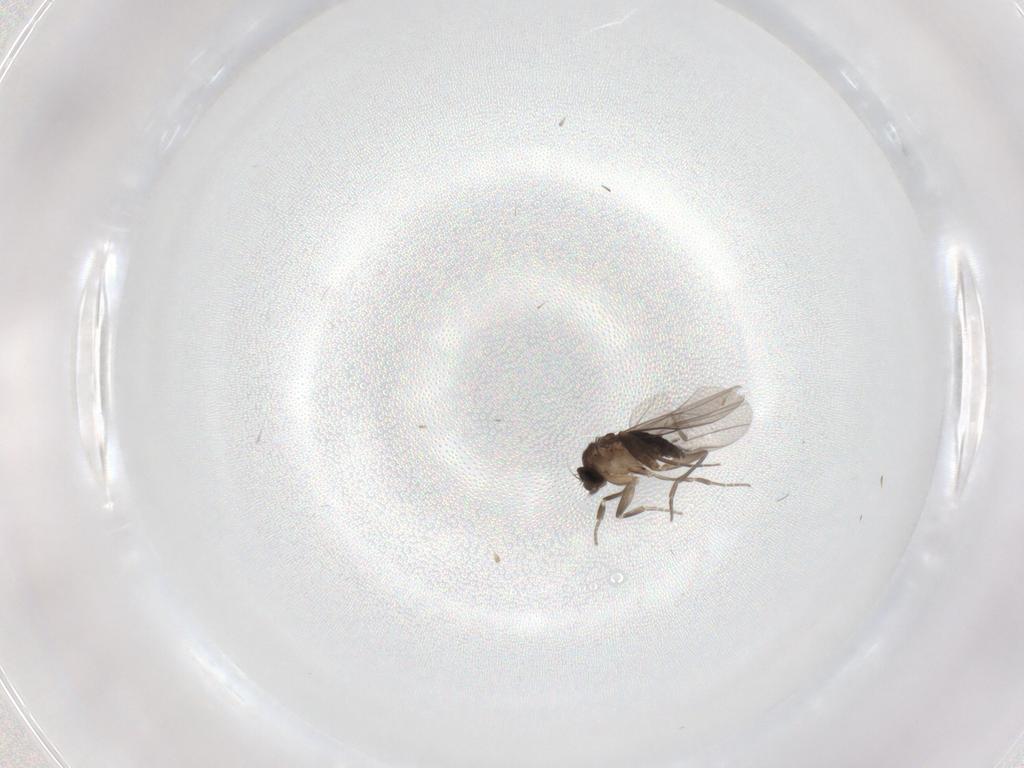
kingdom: Animalia
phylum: Arthropoda
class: Insecta
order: Diptera
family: Phoridae
